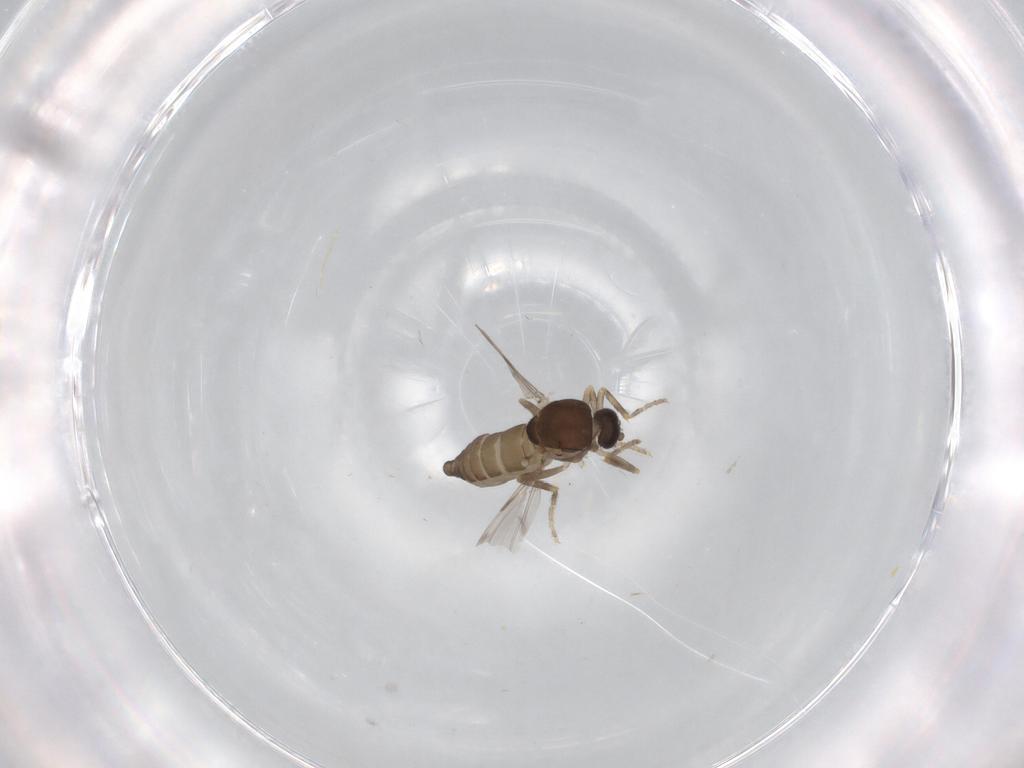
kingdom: Animalia
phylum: Arthropoda
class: Insecta
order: Diptera
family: Ceratopogonidae
